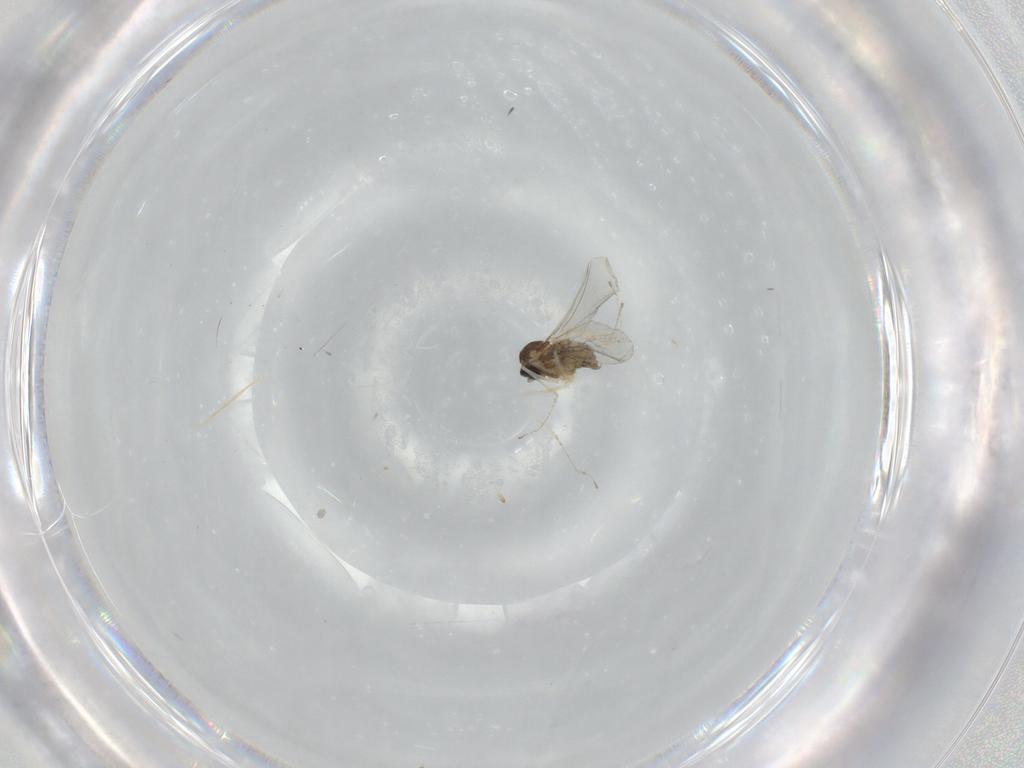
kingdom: Animalia
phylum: Arthropoda
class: Insecta
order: Diptera
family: Cecidomyiidae
